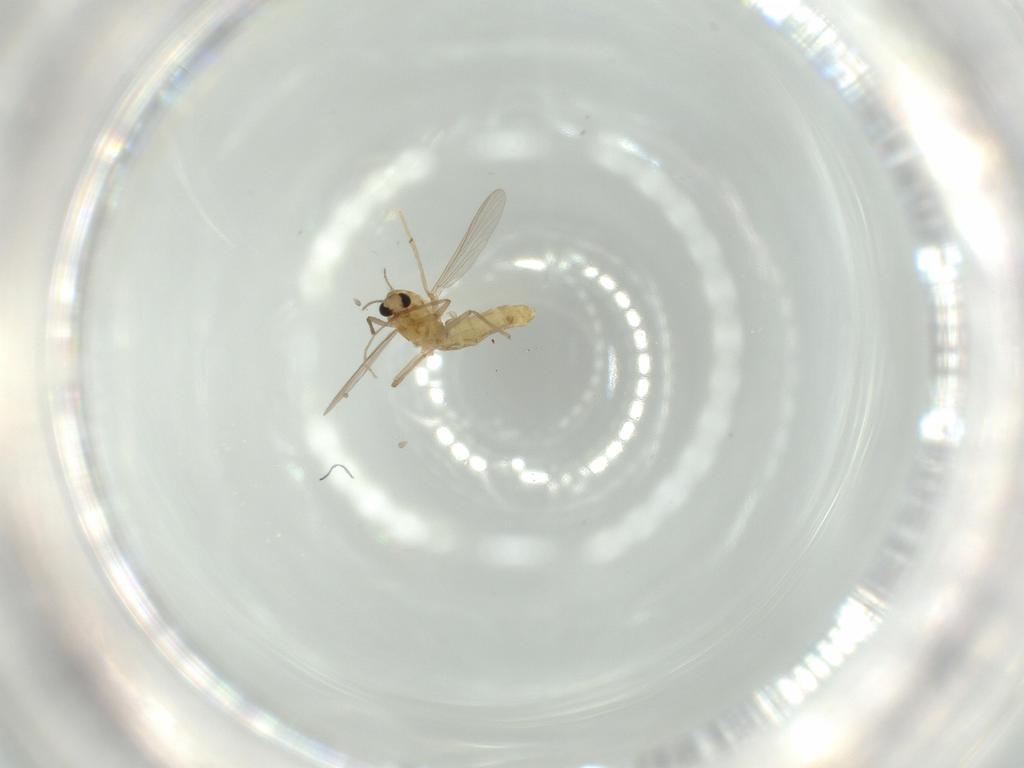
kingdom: Animalia
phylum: Arthropoda
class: Insecta
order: Diptera
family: Chironomidae
